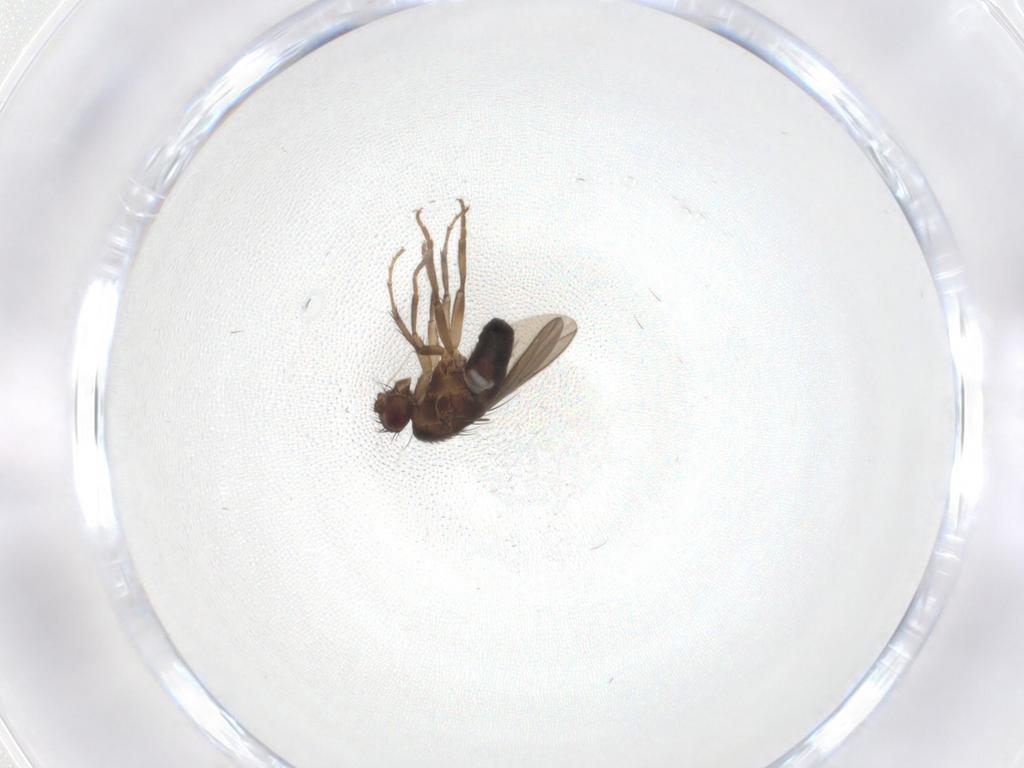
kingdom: Animalia
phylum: Arthropoda
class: Insecta
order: Diptera
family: Sphaeroceridae
